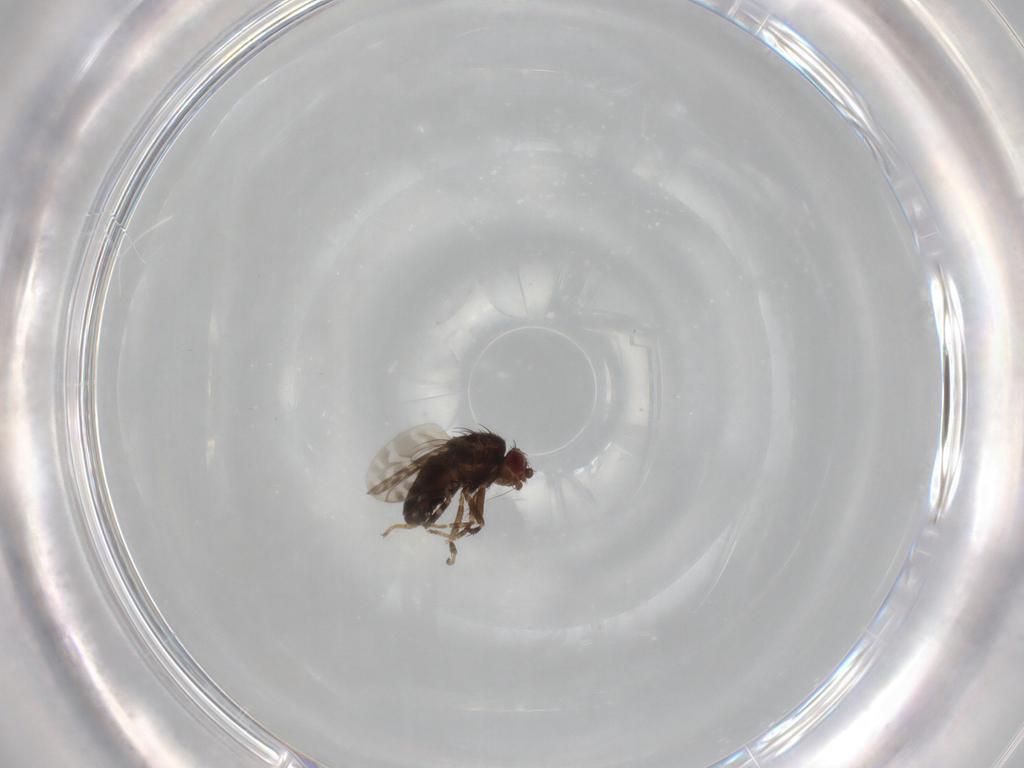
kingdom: Animalia
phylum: Arthropoda
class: Insecta
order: Diptera
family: Sphaeroceridae
